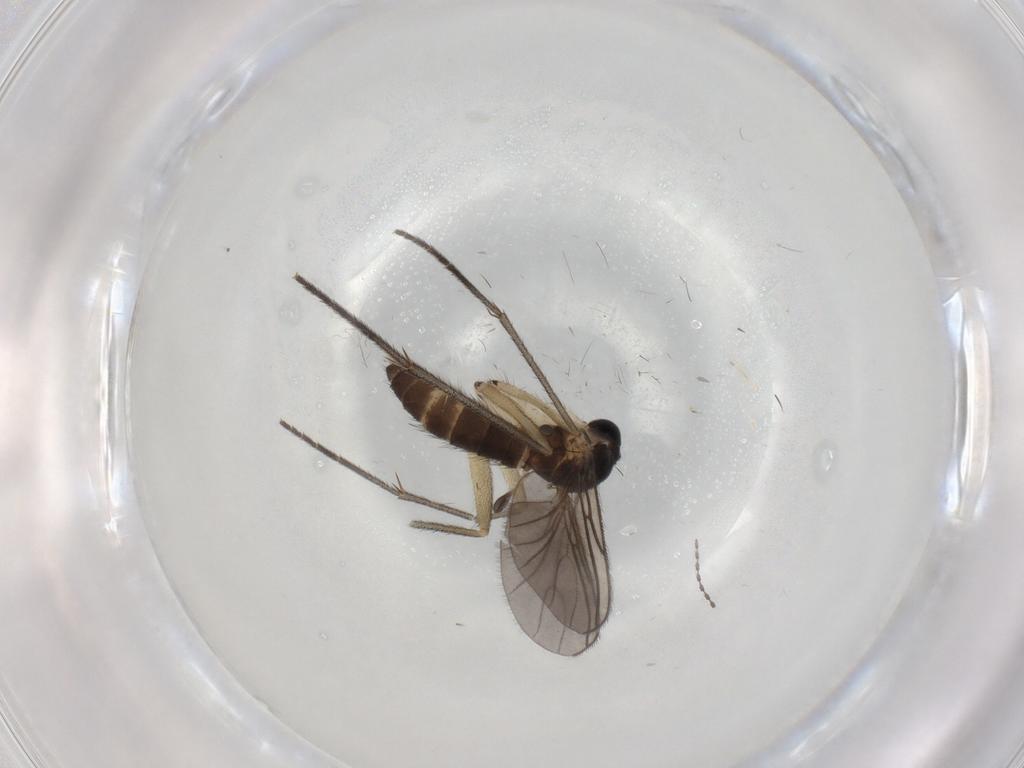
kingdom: Animalia
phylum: Arthropoda
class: Insecta
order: Diptera
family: Sciaridae
